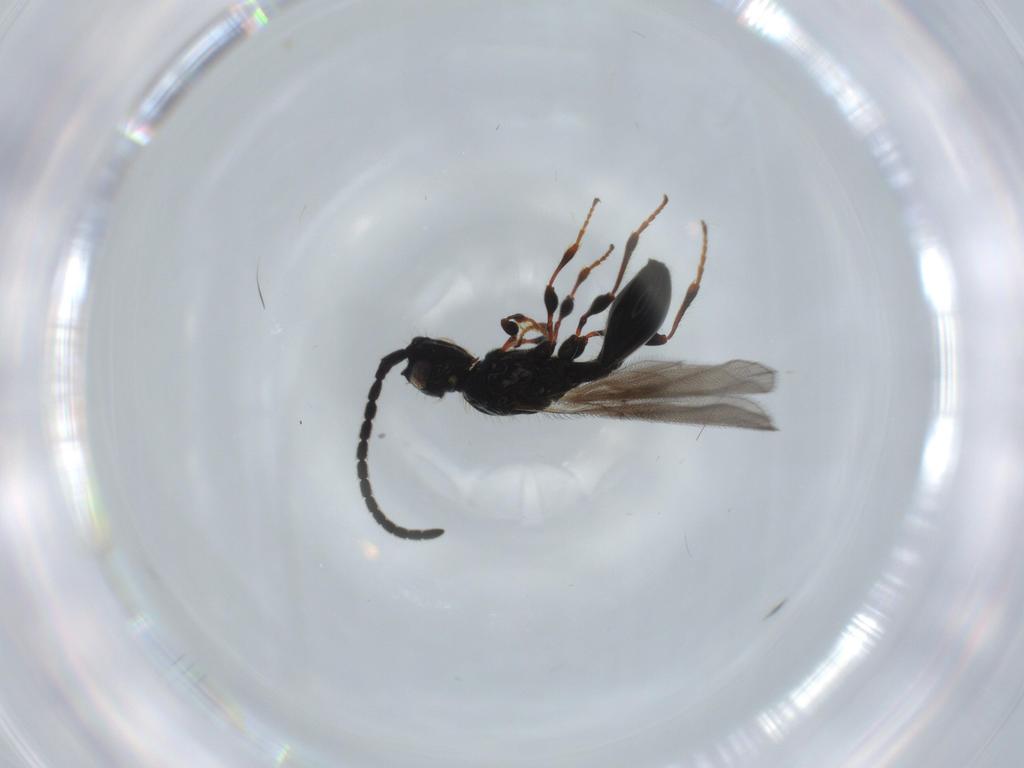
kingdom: Animalia
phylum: Arthropoda
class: Insecta
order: Hymenoptera
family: Diapriidae
